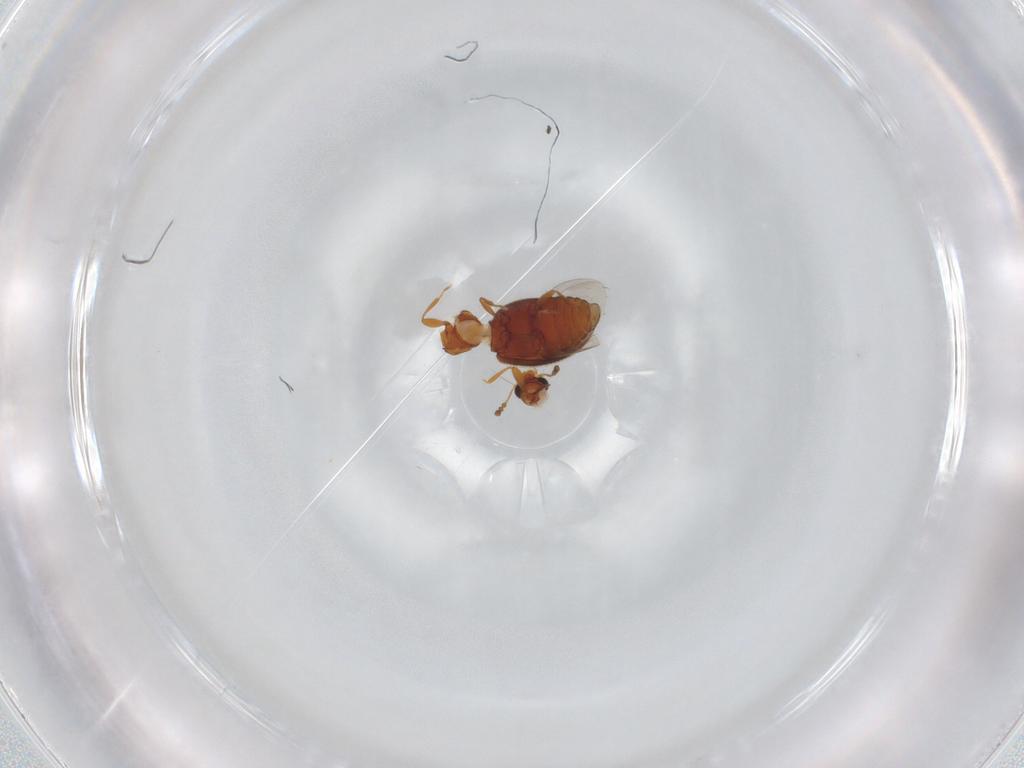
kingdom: Animalia
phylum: Arthropoda
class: Insecta
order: Coleoptera
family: Latridiidae
